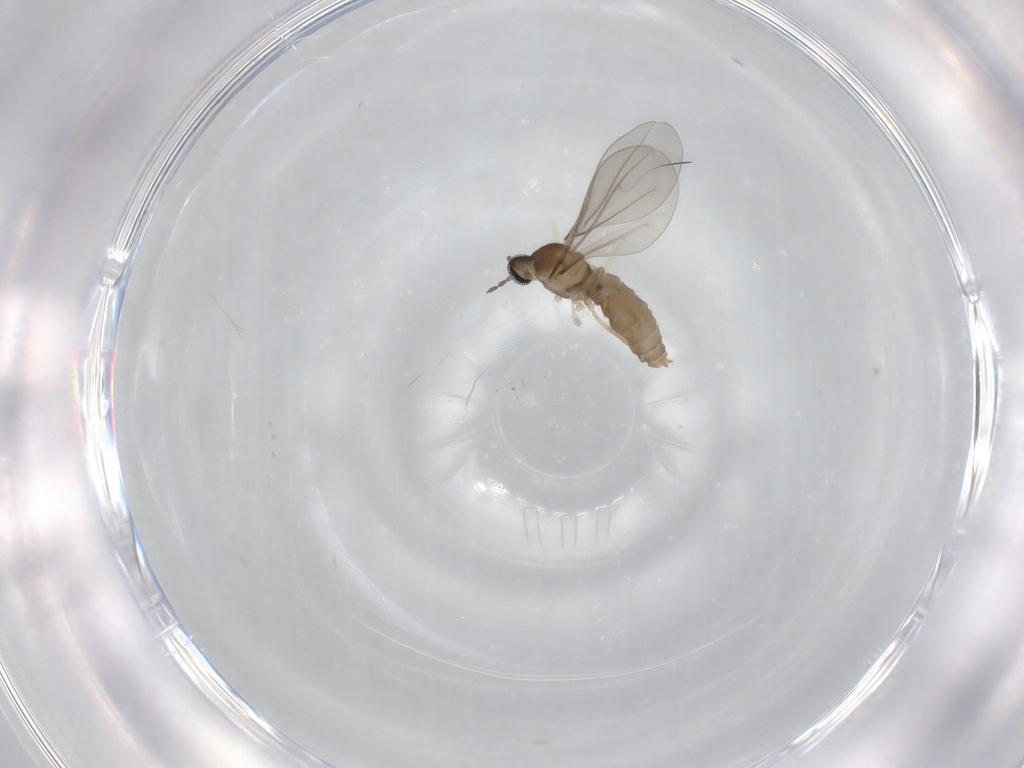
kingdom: Animalia
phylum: Arthropoda
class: Insecta
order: Diptera
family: Cecidomyiidae
